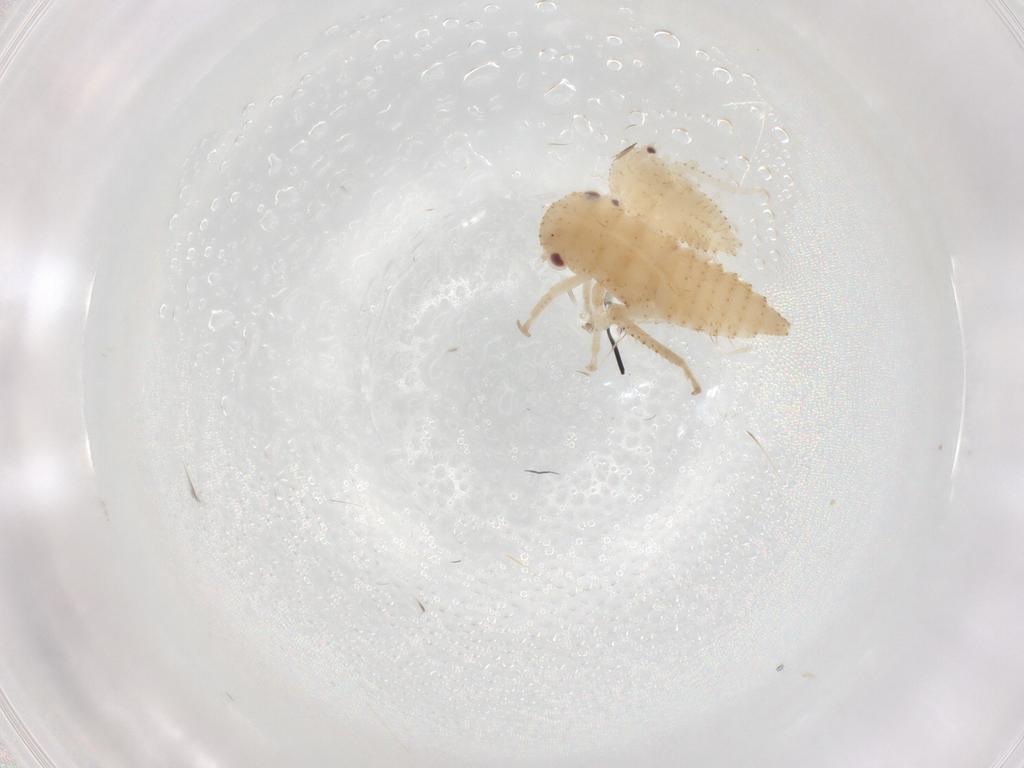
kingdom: Animalia
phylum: Arthropoda
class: Insecta
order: Hemiptera
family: Cicadellidae
